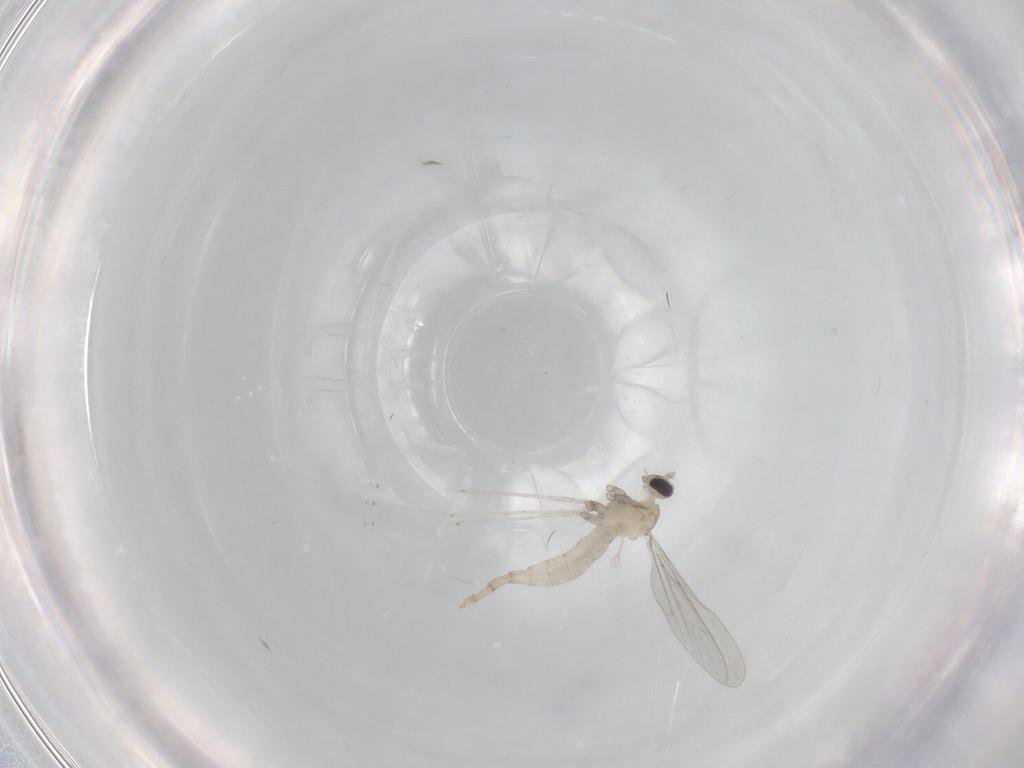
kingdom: Animalia
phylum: Arthropoda
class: Insecta
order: Diptera
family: Cecidomyiidae
